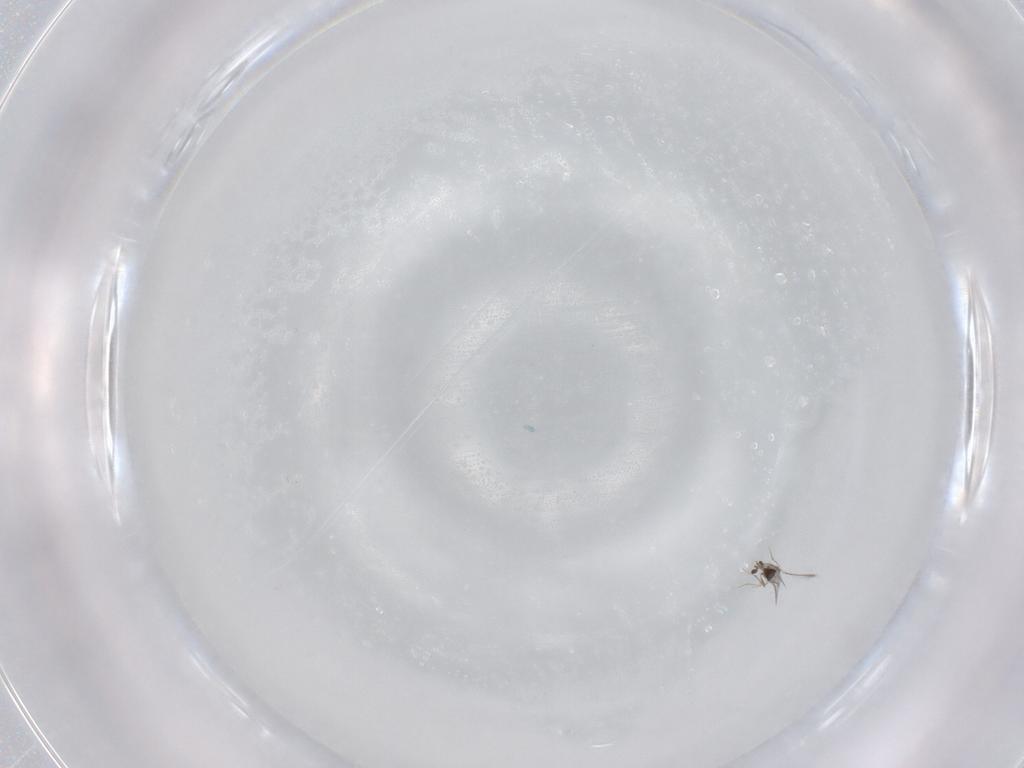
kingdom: Animalia
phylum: Arthropoda
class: Insecta
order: Hymenoptera
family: Mymaridae
